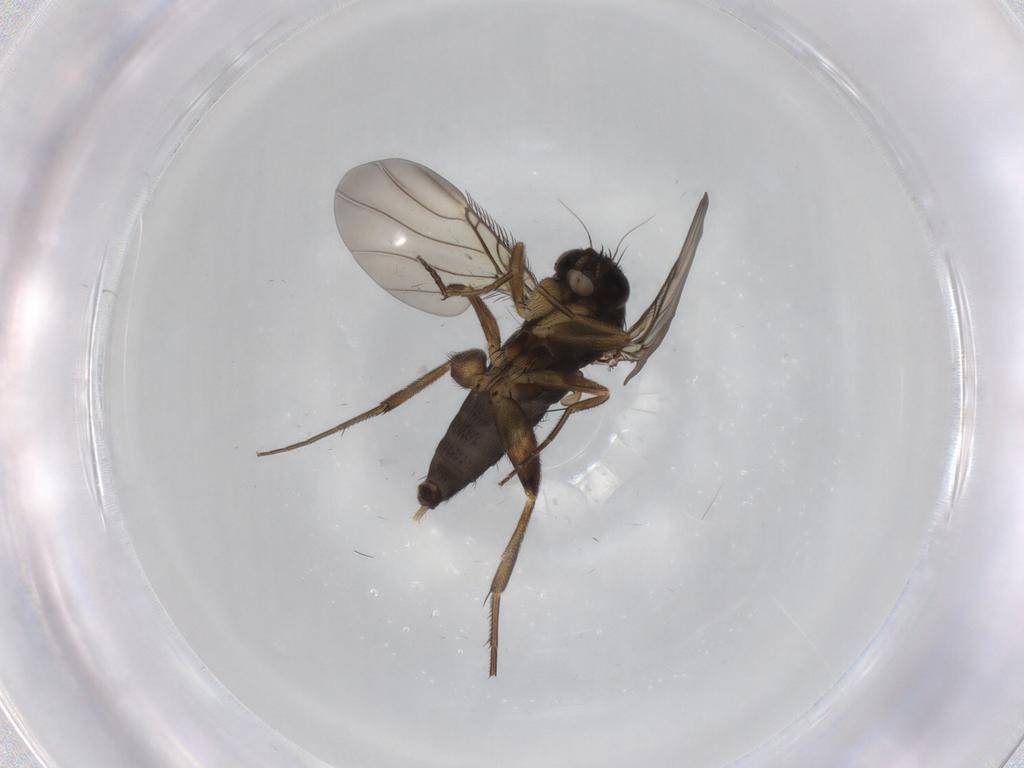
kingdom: Animalia
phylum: Arthropoda
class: Insecta
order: Diptera
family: Phoridae
